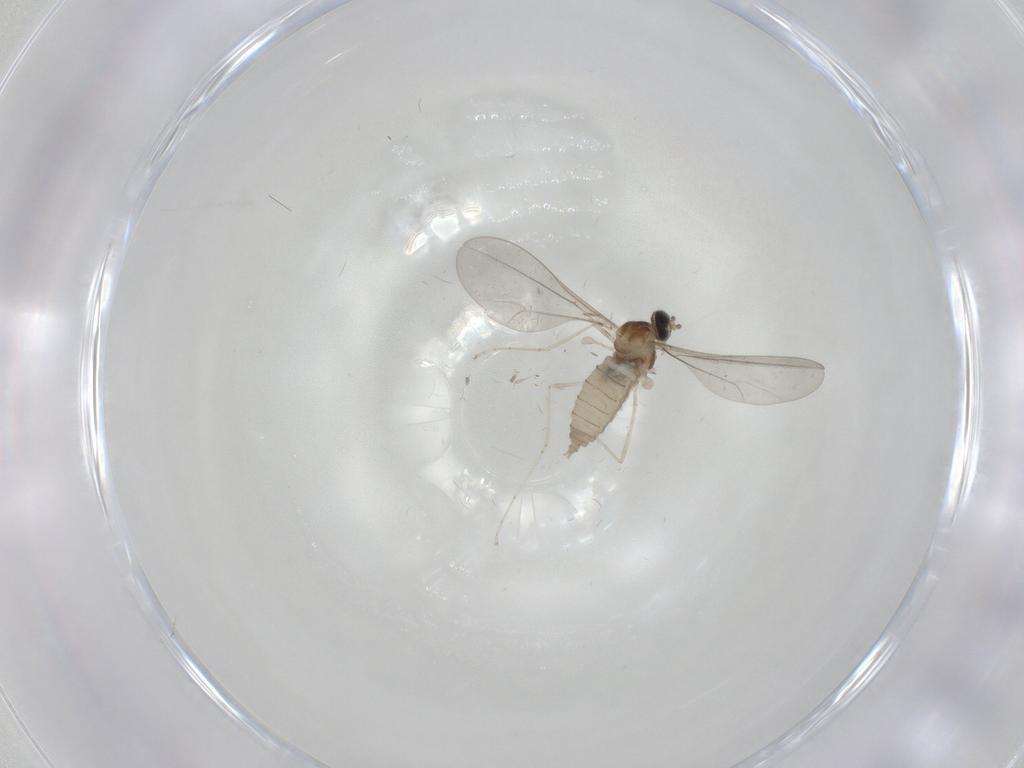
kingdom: Animalia
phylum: Arthropoda
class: Insecta
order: Diptera
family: Cecidomyiidae
